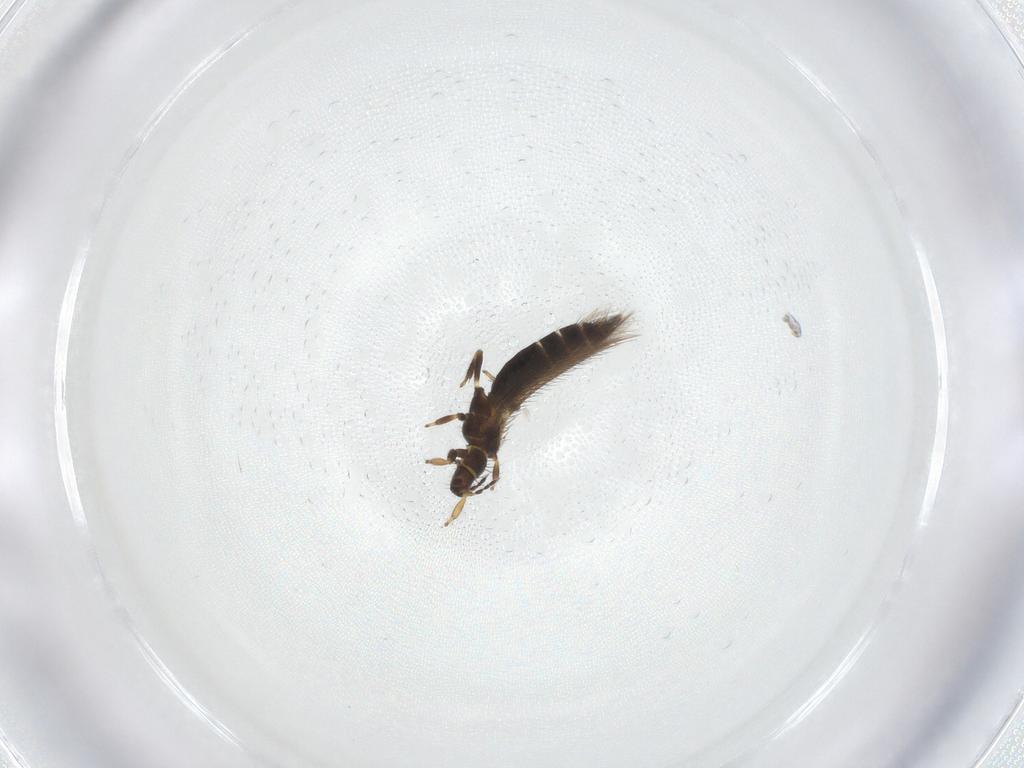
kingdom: Animalia
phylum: Arthropoda
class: Insecta
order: Thysanoptera
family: Thripidae
